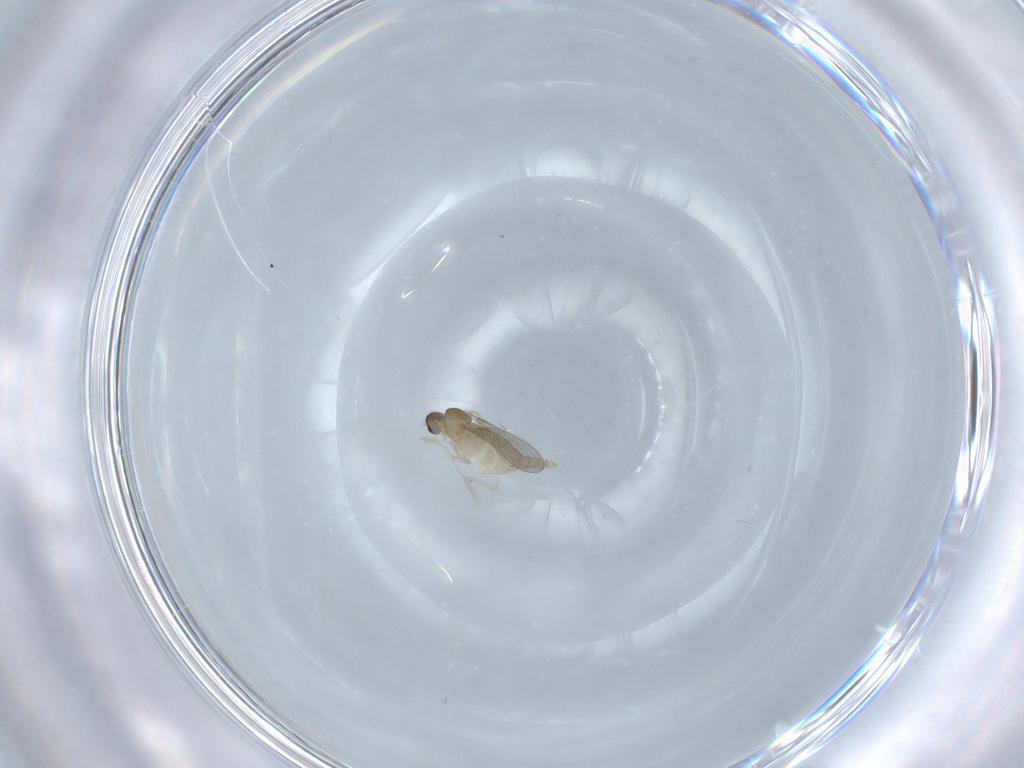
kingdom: Animalia
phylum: Arthropoda
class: Insecta
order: Diptera
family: Cecidomyiidae
